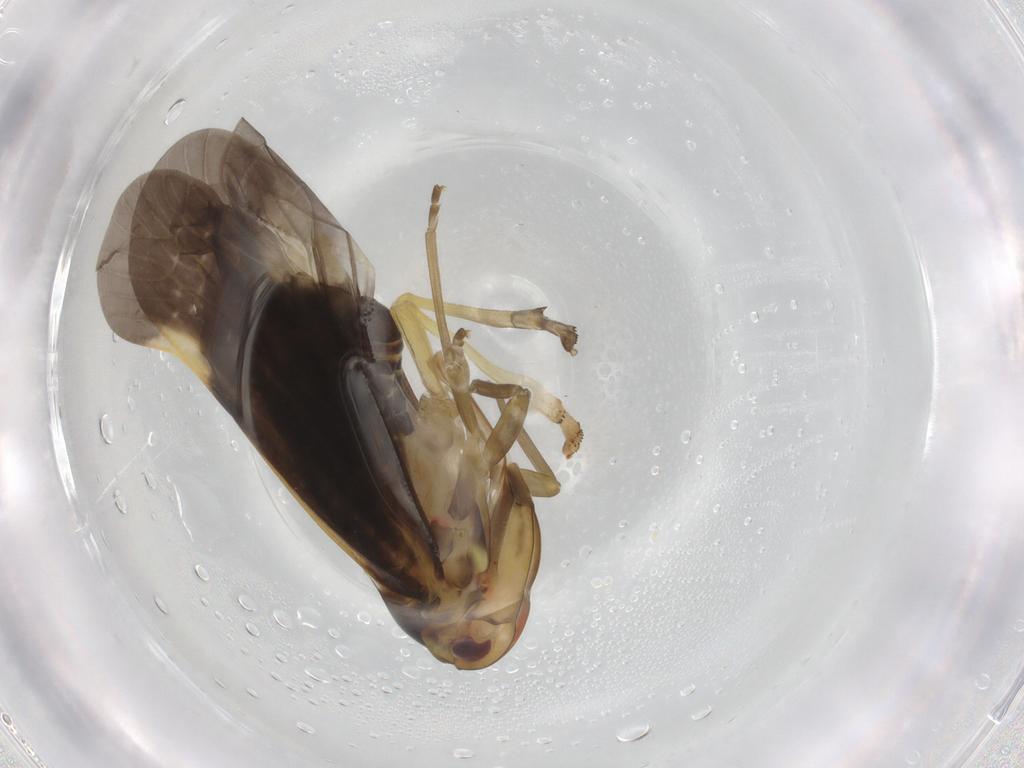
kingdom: Animalia
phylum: Arthropoda
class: Insecta
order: Hemiptera
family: Derbidae
